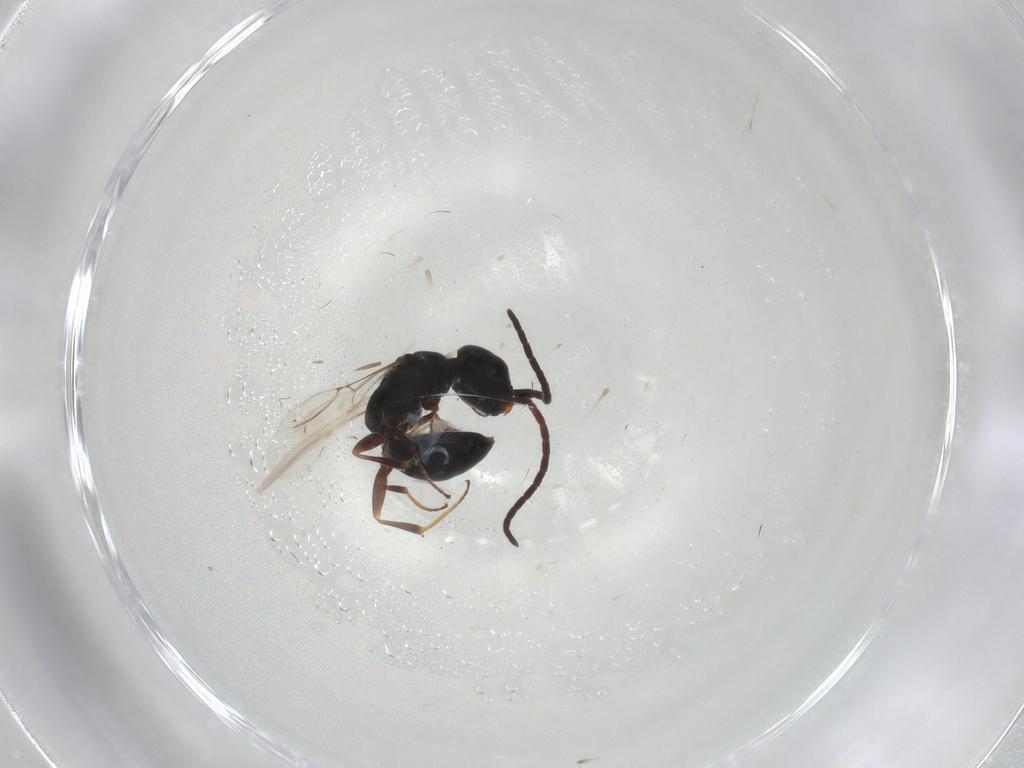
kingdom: Animalia
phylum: Arthropoda
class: Insecta
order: Hymenoptera
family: Bethylidae
